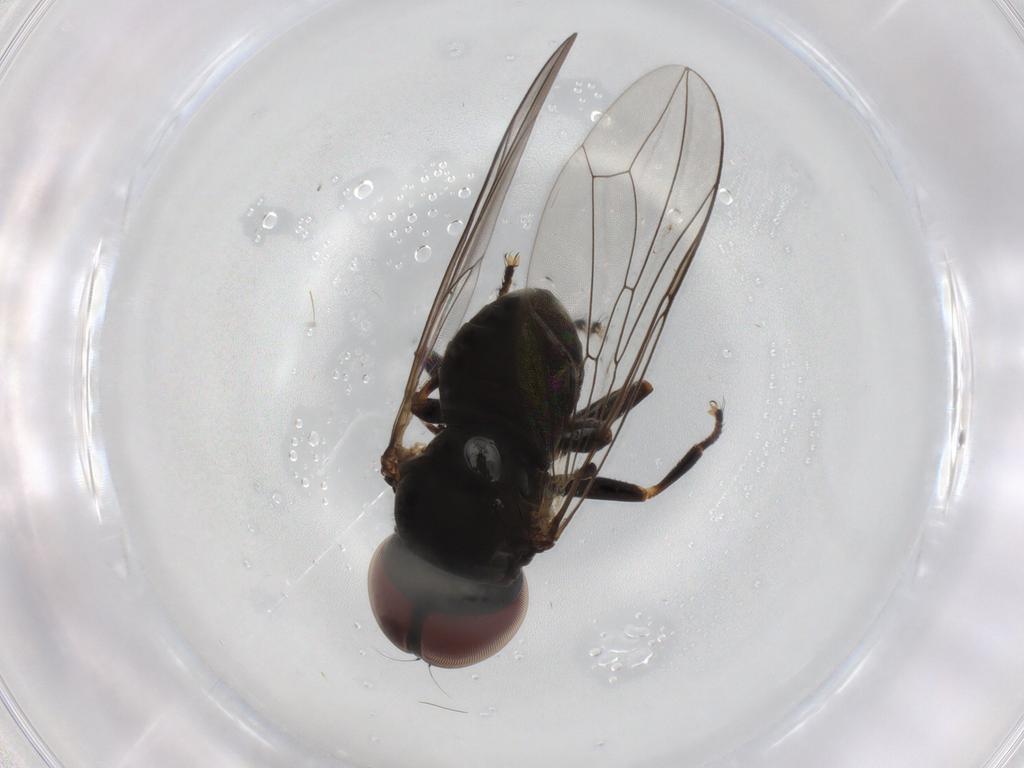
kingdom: Animalia
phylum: Arthropoda
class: Insecta
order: Diptera
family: Pipunculidae
